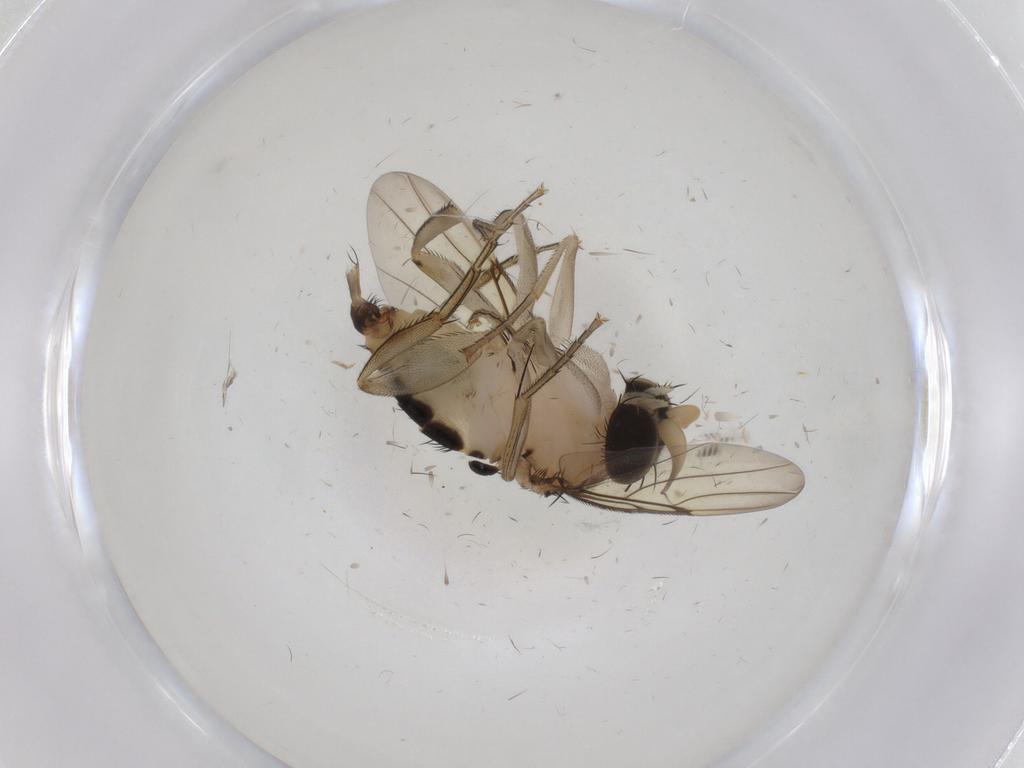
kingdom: Animalia
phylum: Arthropoda
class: Insecta
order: Diptera
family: Phoridae
